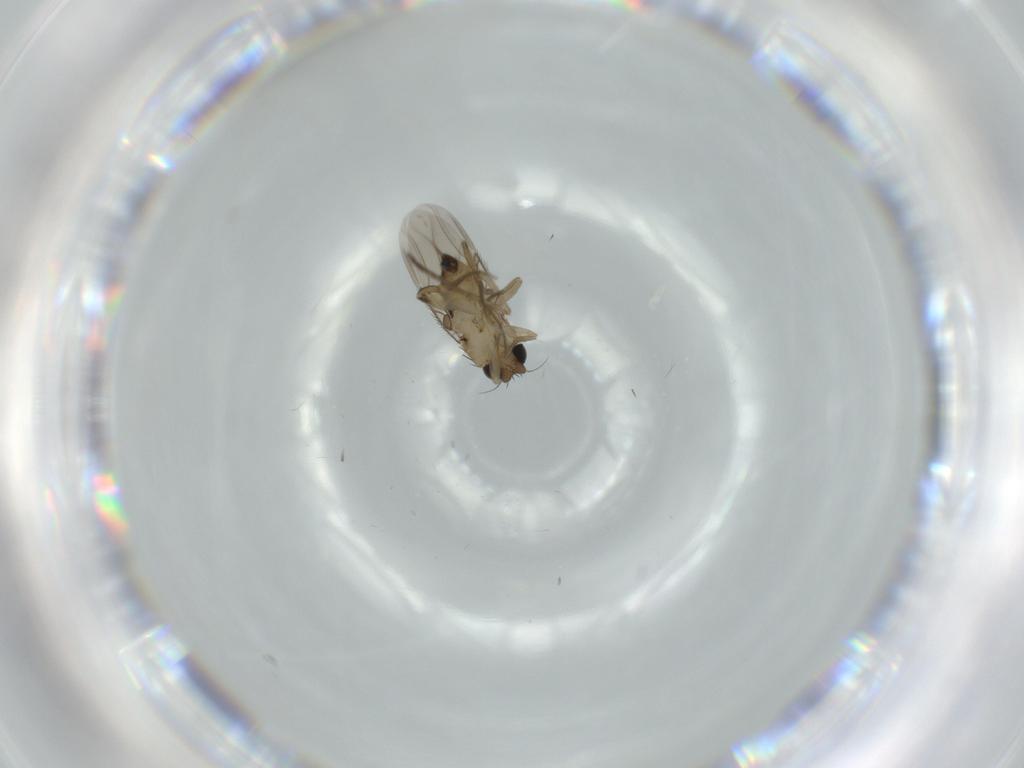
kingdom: Animalia
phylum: Arthropoda
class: Insecta
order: Diptera
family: Phoridae
